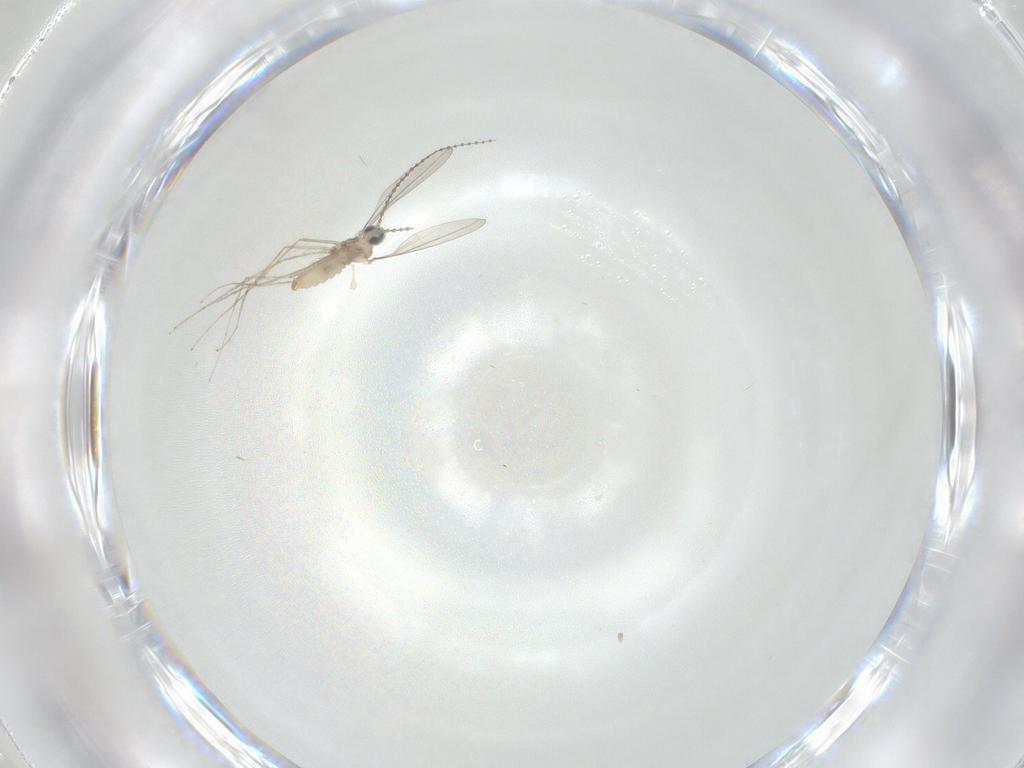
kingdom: Animalia
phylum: Arthropoda
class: Insecta
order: Diptera
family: Cecidomyiidae
